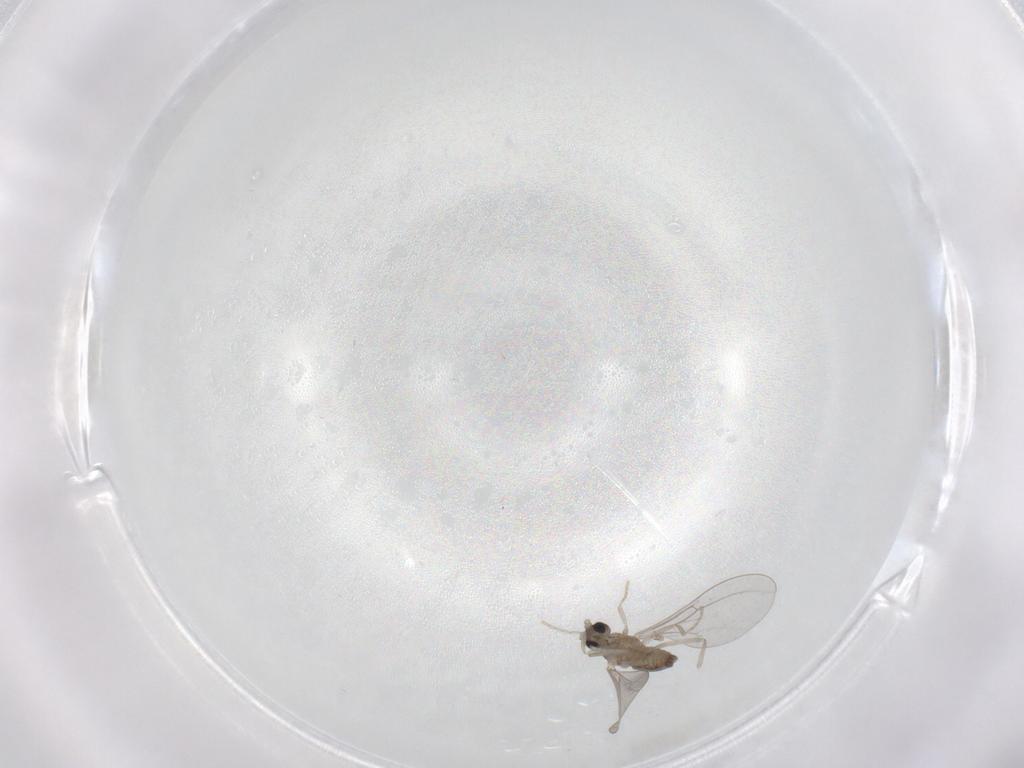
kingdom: Animalia
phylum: Arthropoda
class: Insecta
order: Diptera
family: Cecidomyiidae
